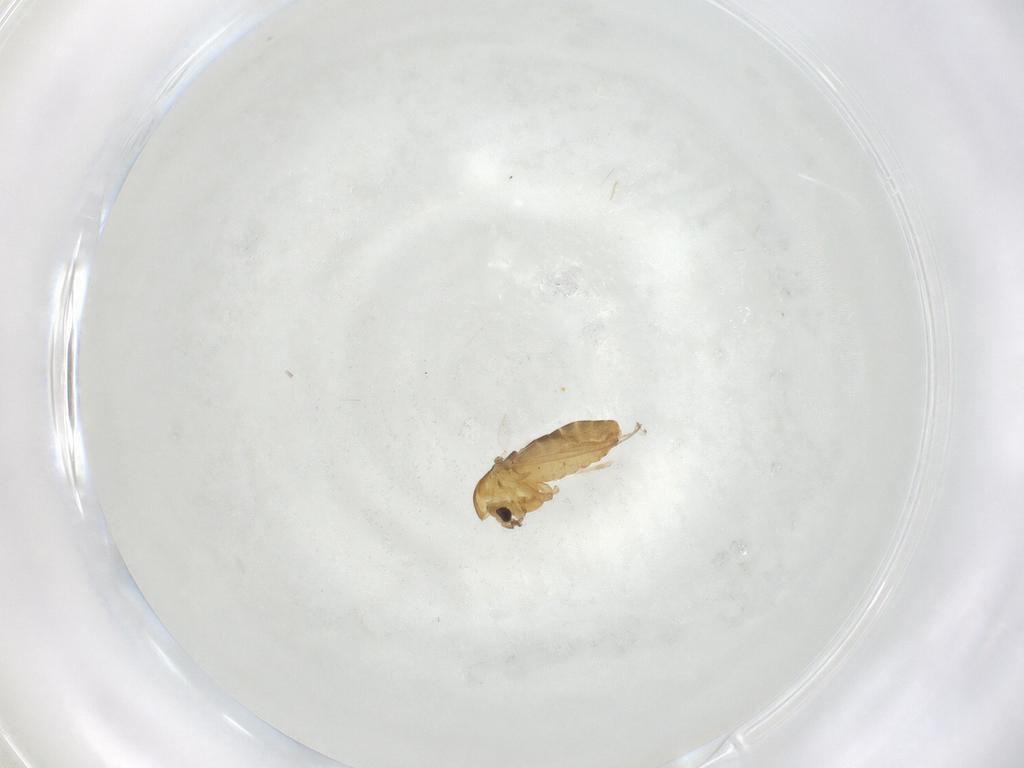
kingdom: Animalia
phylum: Arthropoda
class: Insecta
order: Diptera
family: Chironomidae
